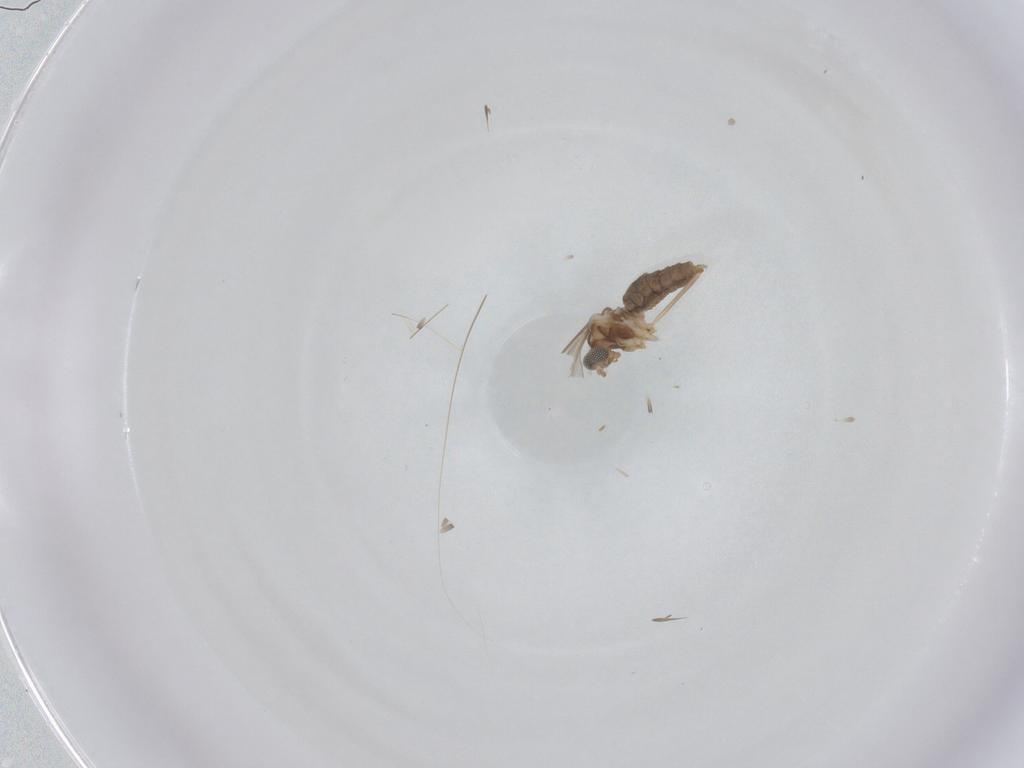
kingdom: Animalia
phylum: Arthropoda
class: Insecta
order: Diptera
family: Cecidomyiidae
